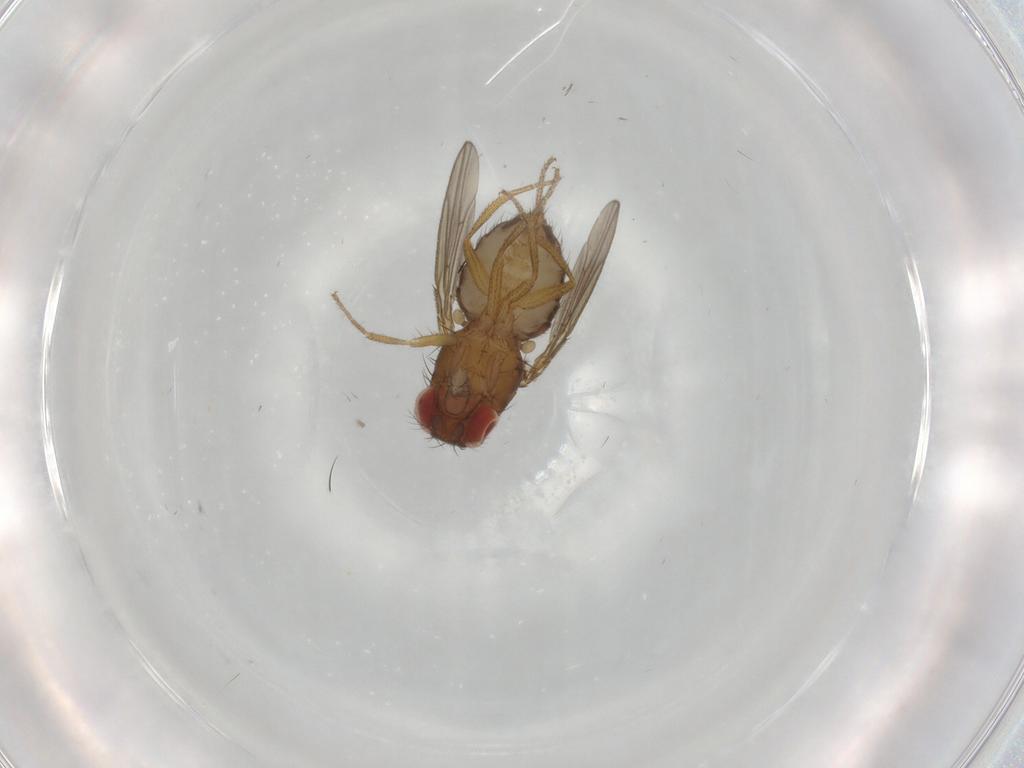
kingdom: Animalia
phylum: Arthropoda
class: Insecta
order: Diptera
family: Drosophilidae
